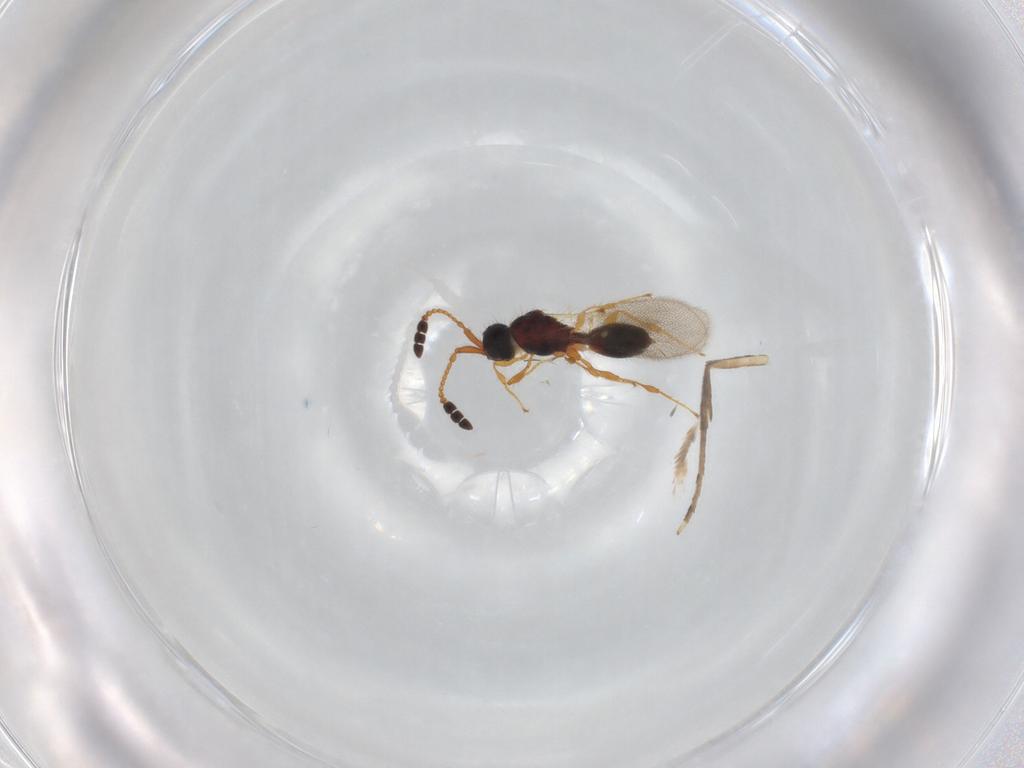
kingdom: Animalia
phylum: Arthropoda
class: Insecta
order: Hymenoptera
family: Diapriidae
